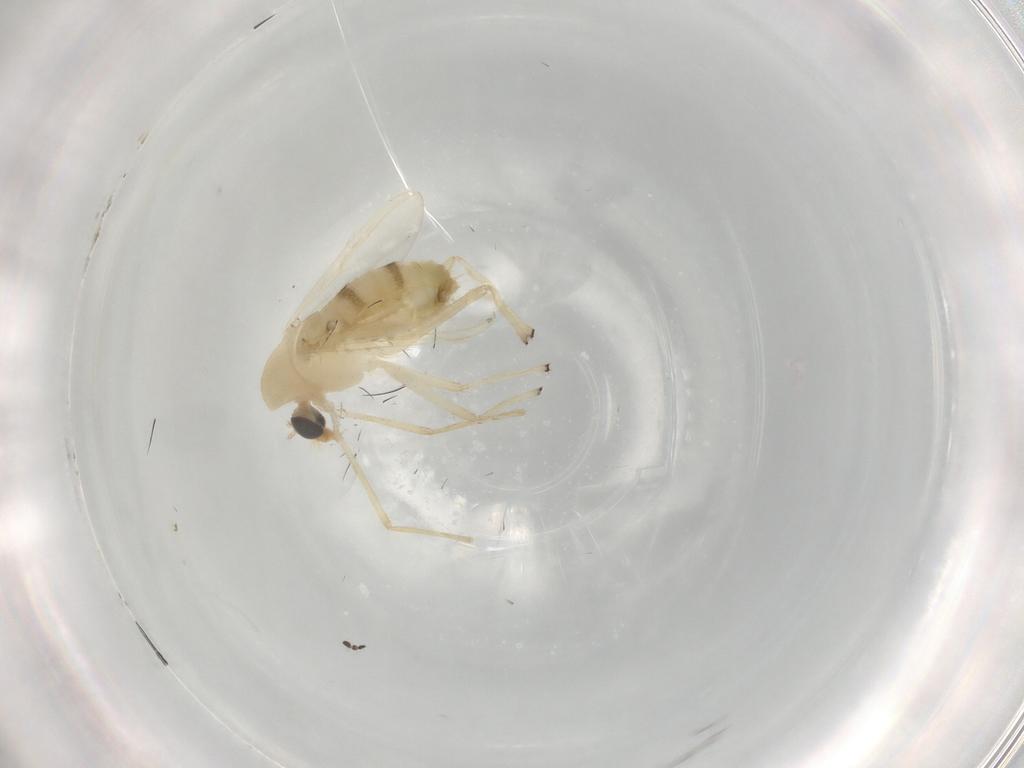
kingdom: Animalia
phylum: Arthropoda
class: Insecta
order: Diptera
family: Chironomidae
